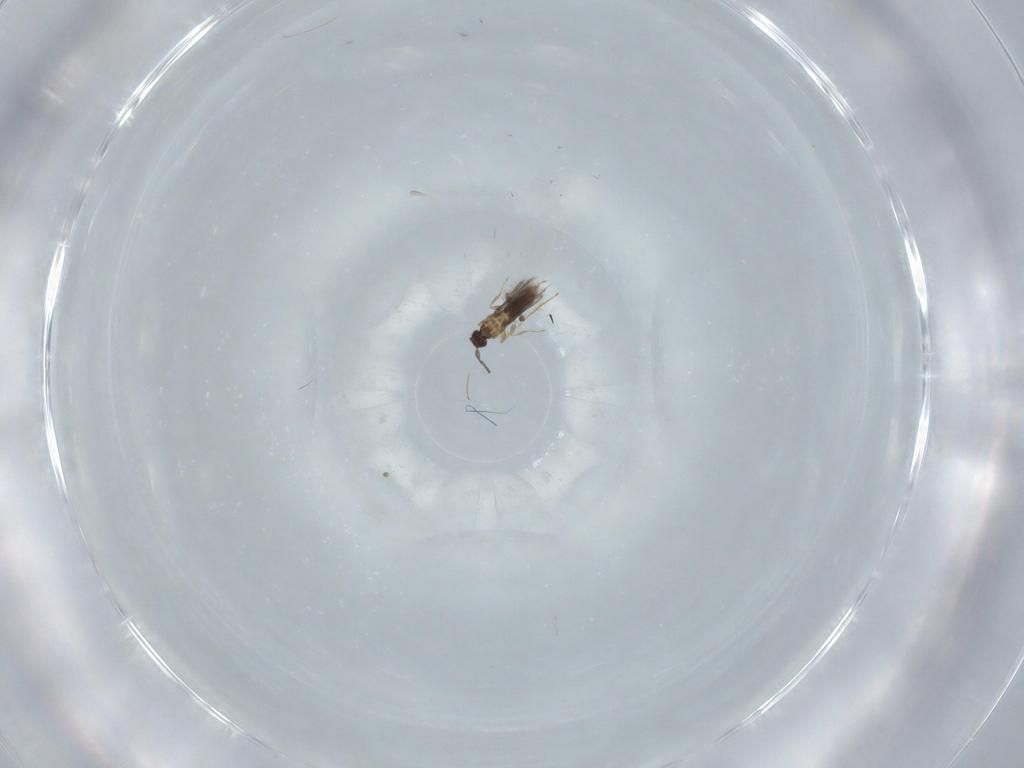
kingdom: Animalia
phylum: Arthropoda
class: Insecta
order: Hymenoptera
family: Mymaridae
